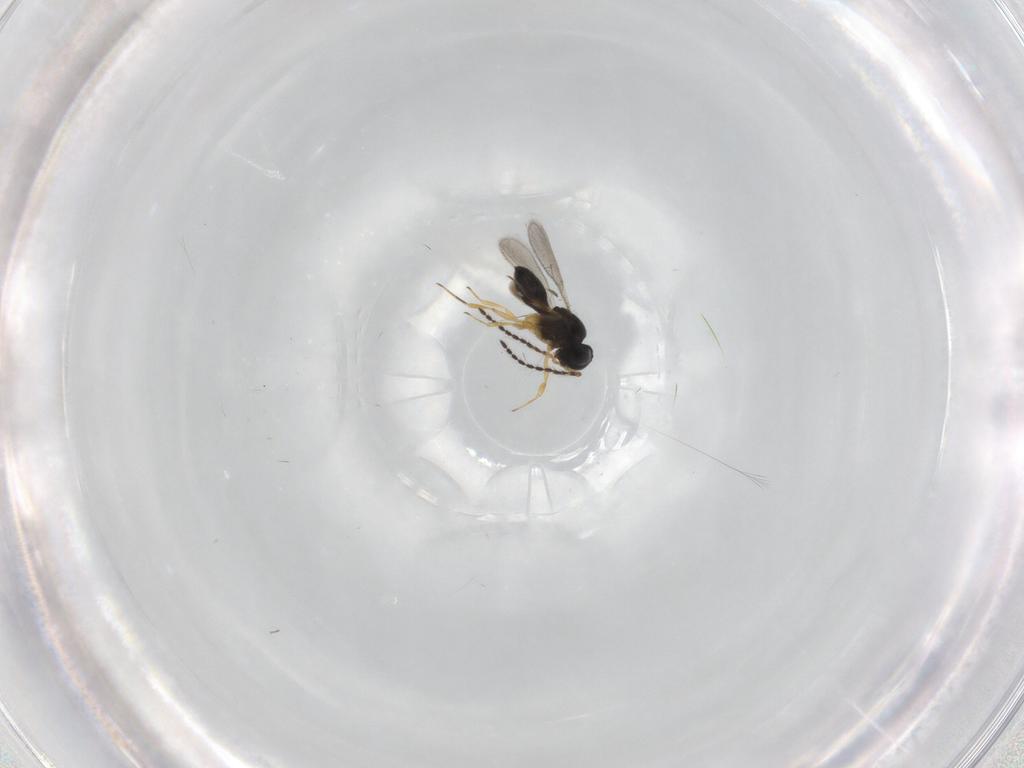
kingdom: Animalia
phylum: Arthropoda
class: Insecta
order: Hymenoptera
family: Scelionidae
